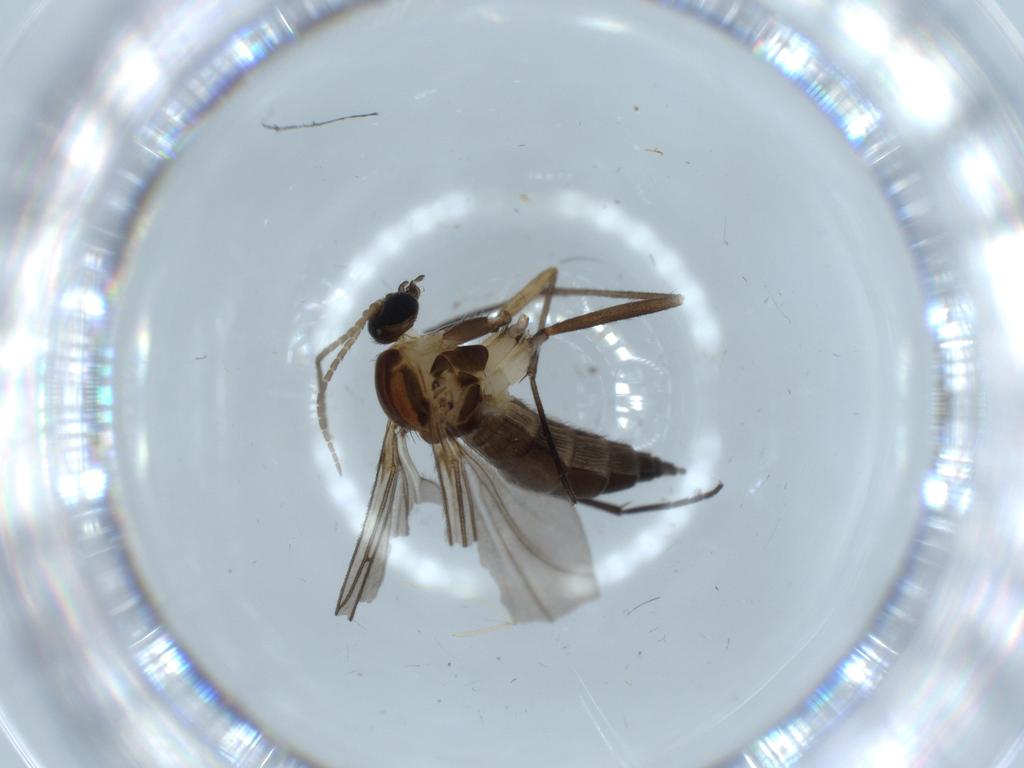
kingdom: Animalia
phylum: Arthropoda
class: Insecta
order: Diptera
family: Sciaridae
